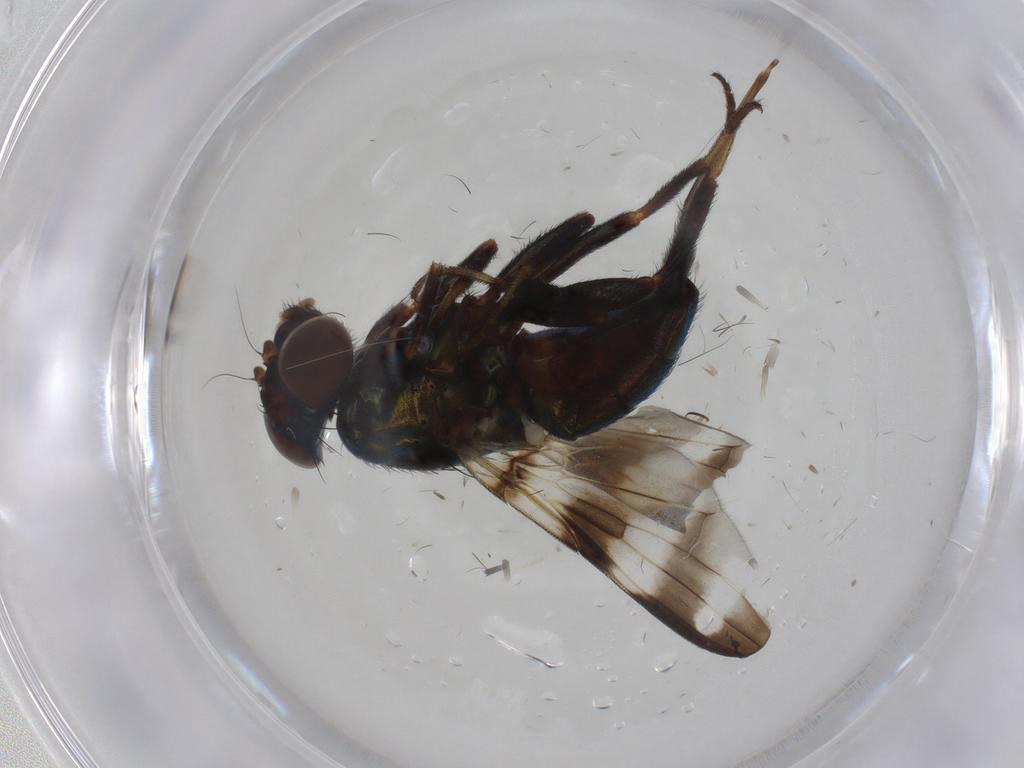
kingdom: Animalia
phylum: Arthropoda
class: Insecta
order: Diptera
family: Ulidiidae
